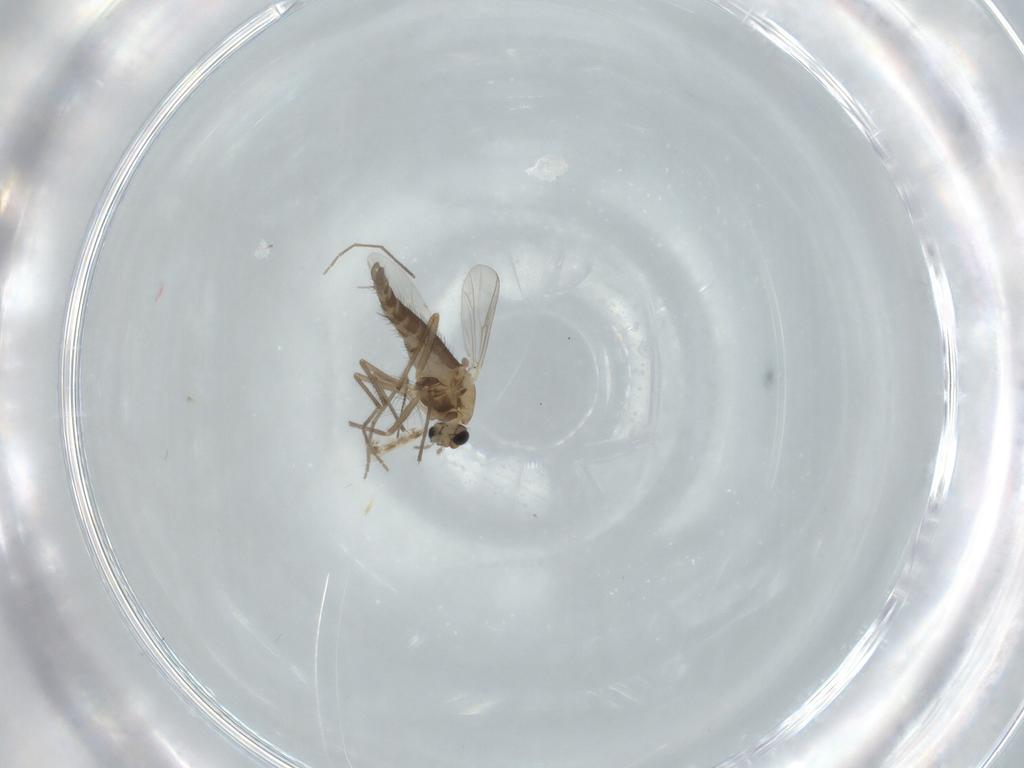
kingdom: Animalia
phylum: Arthropoda
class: Insecta
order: Diptera
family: Chironomidae
